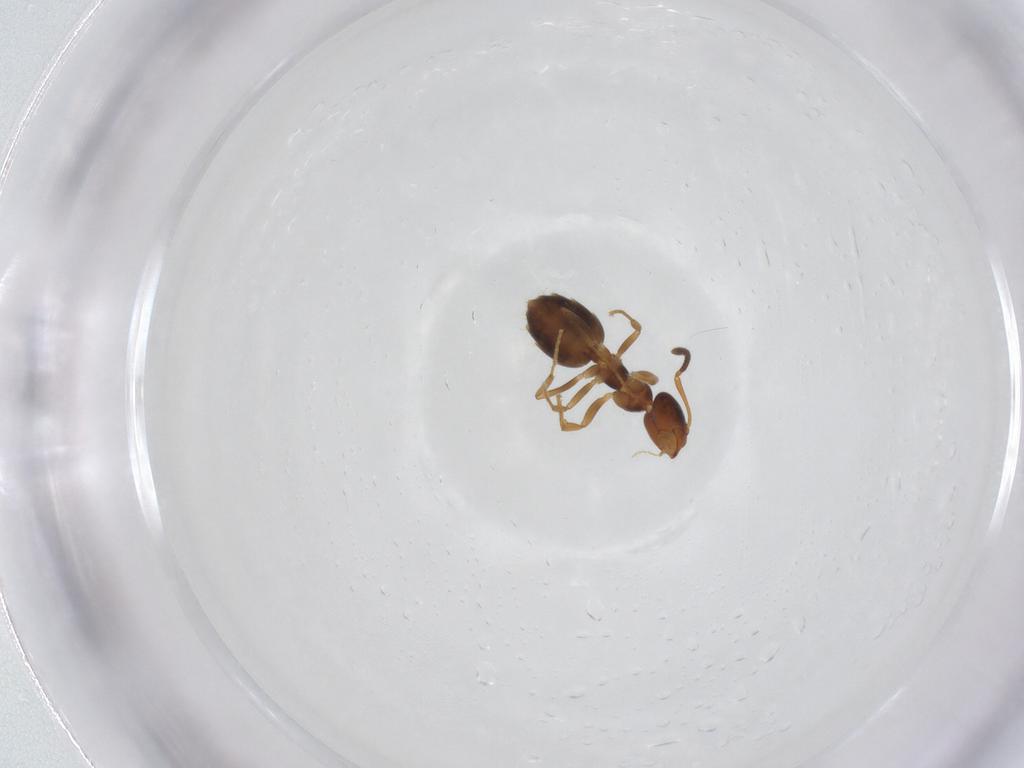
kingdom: Animalia
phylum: Arthropoda
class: Insecta
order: Hymenoptera
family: Formicidae
